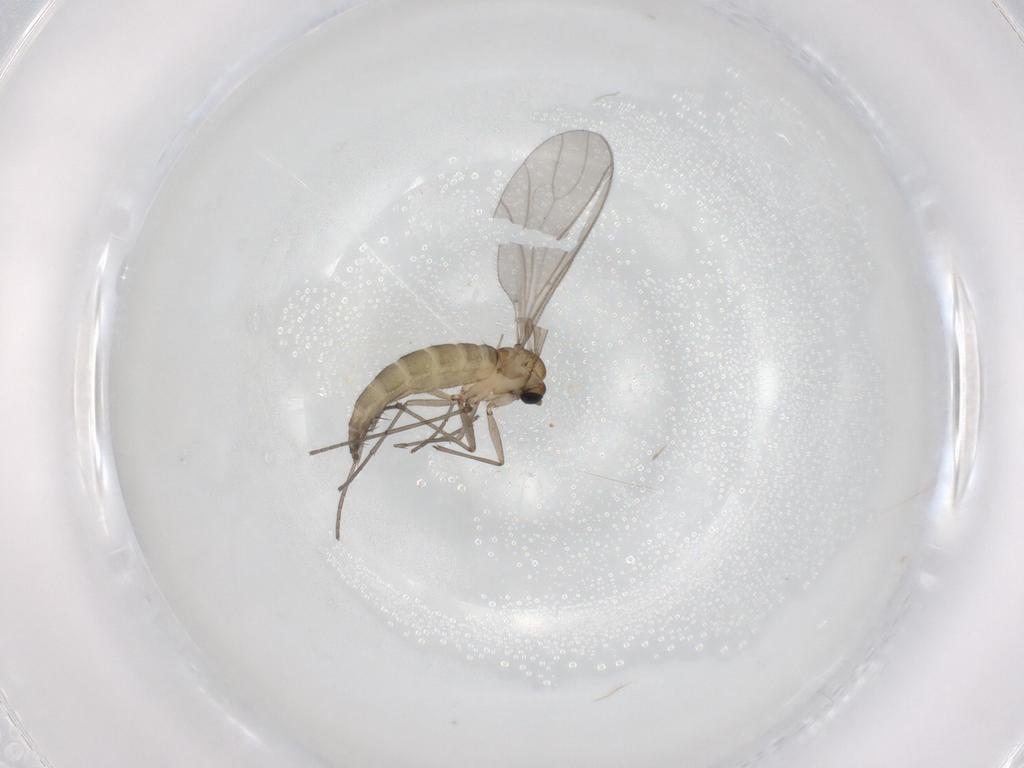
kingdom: Animalia
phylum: Arthropoda
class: Insecta
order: Diptera
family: Sciaridae
